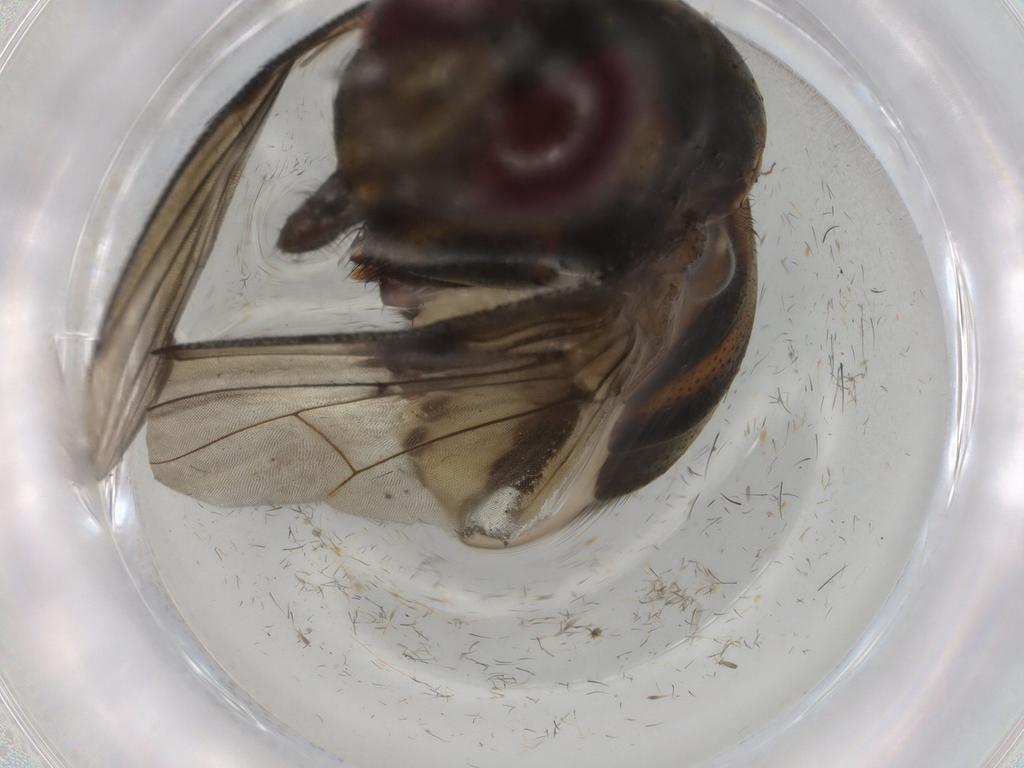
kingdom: Animalia
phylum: Arthropoda
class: Insecta
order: Diptera
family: Muscidae
